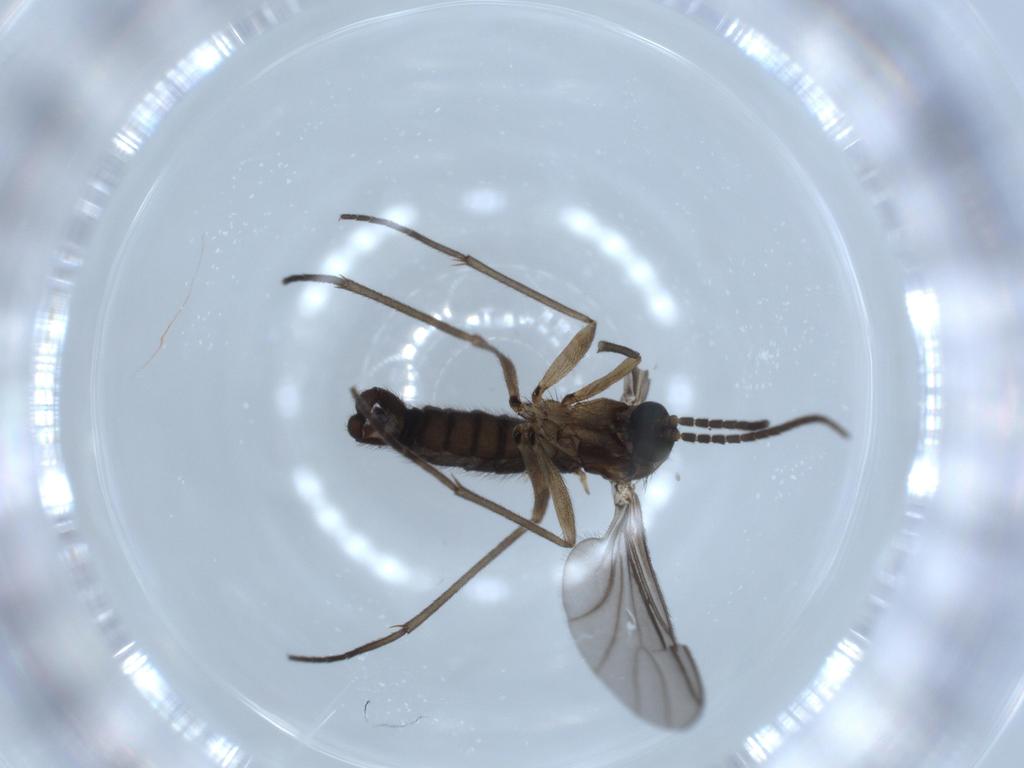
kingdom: Animalia
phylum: Arthropoda
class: Insecta
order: Diptera
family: Sciaridae
